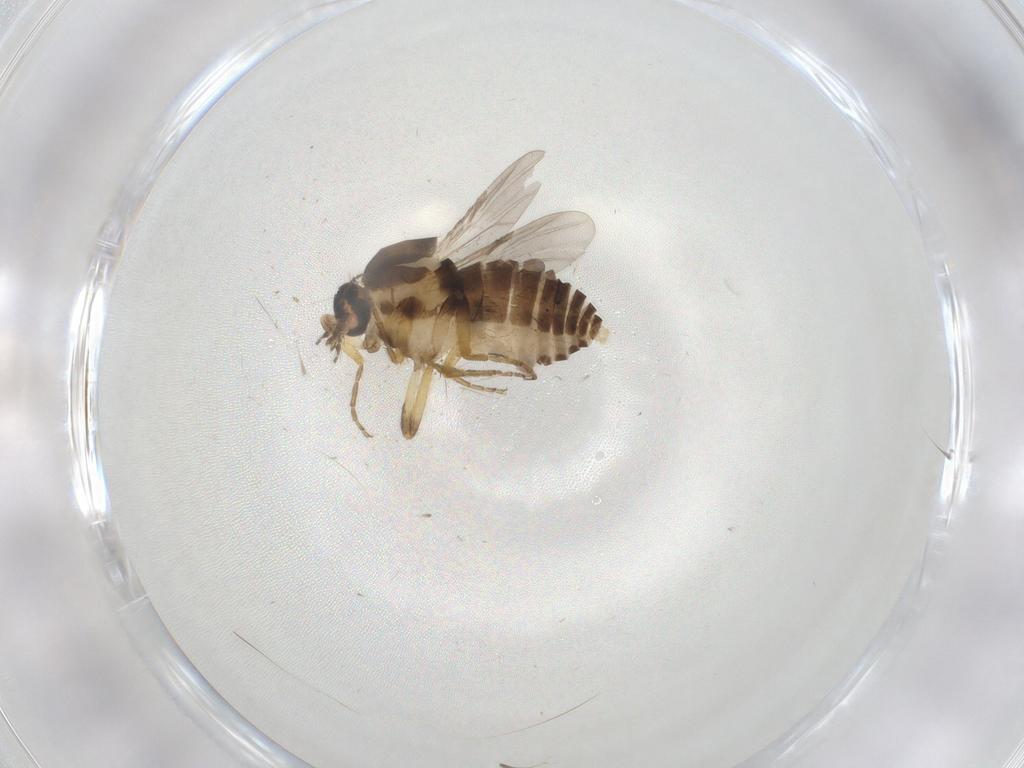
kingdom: Animalia
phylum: Arthropoda
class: Insecta
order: Diptera
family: Ceratopogonidae
